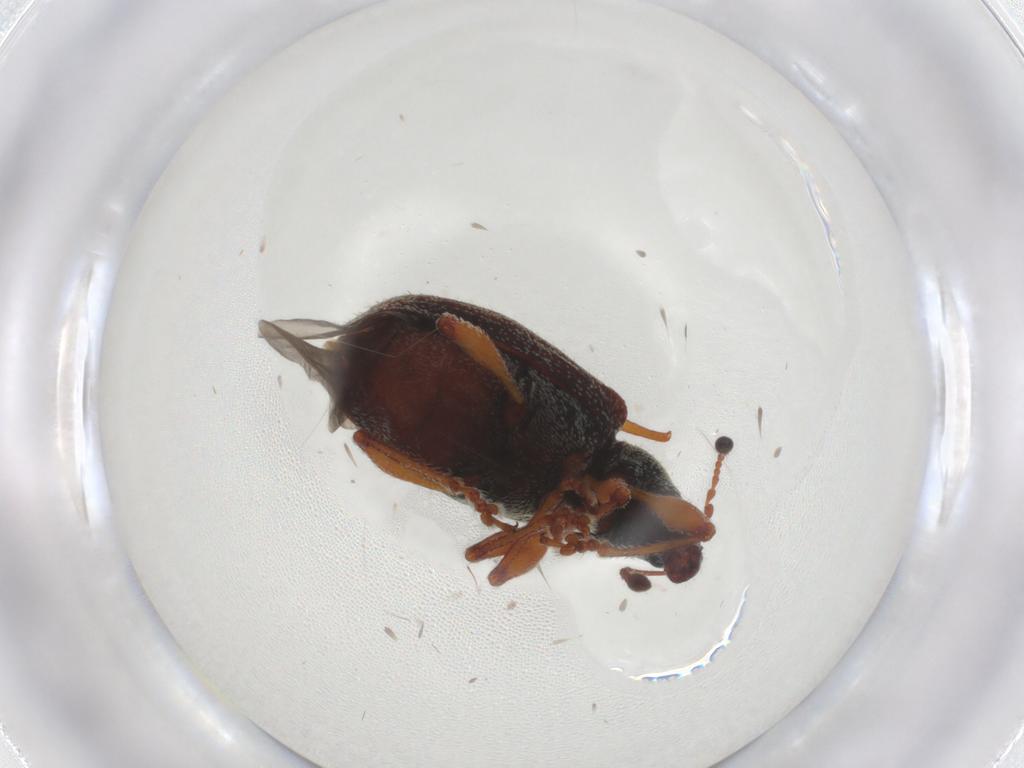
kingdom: Animalia
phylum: Arthropoda
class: Insecta
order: Coleoptera
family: Curculionidae
